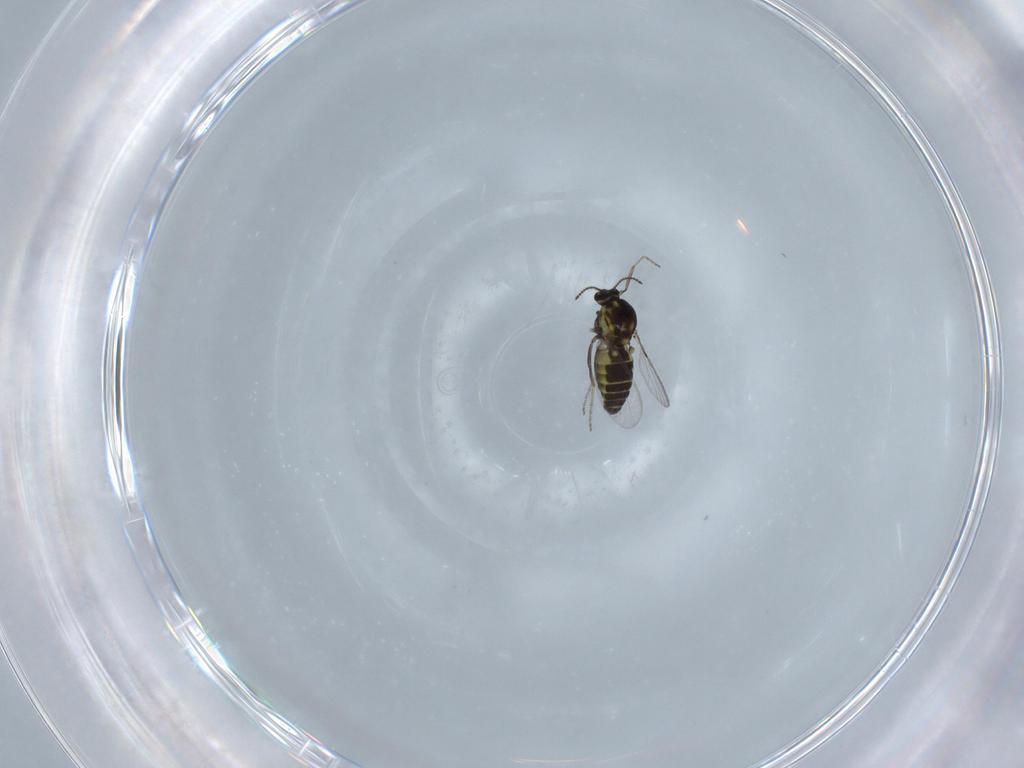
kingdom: Animalia
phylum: Arthropoda
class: Insecta
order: Diptera
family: Ceratopogonidae
